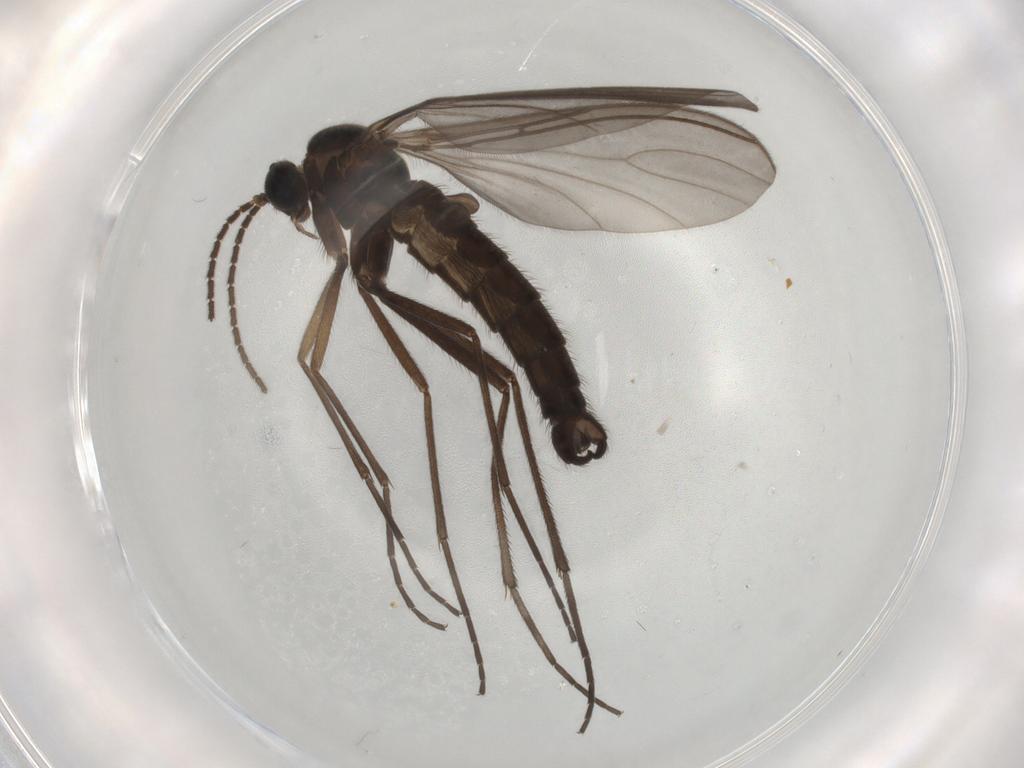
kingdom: Animalia
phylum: Arthropoda
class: Insecta
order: Diptera
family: Sciaridae
